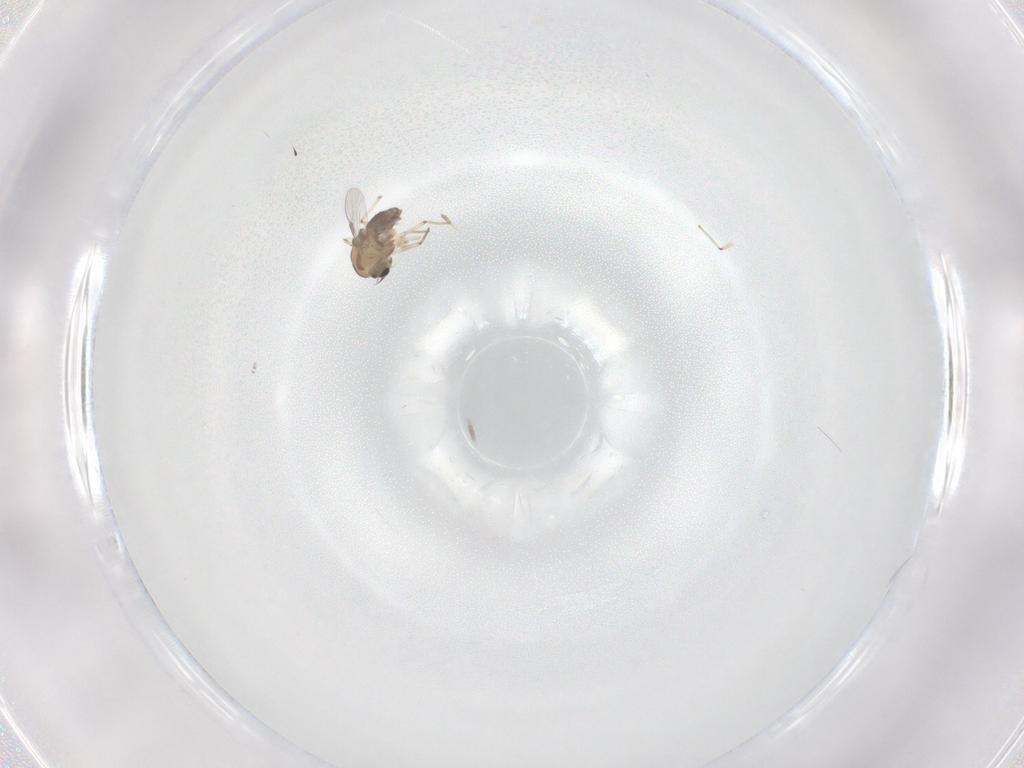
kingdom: Animalia
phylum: Arthropoda
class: Insecta
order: Diptera
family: Chironomidae
